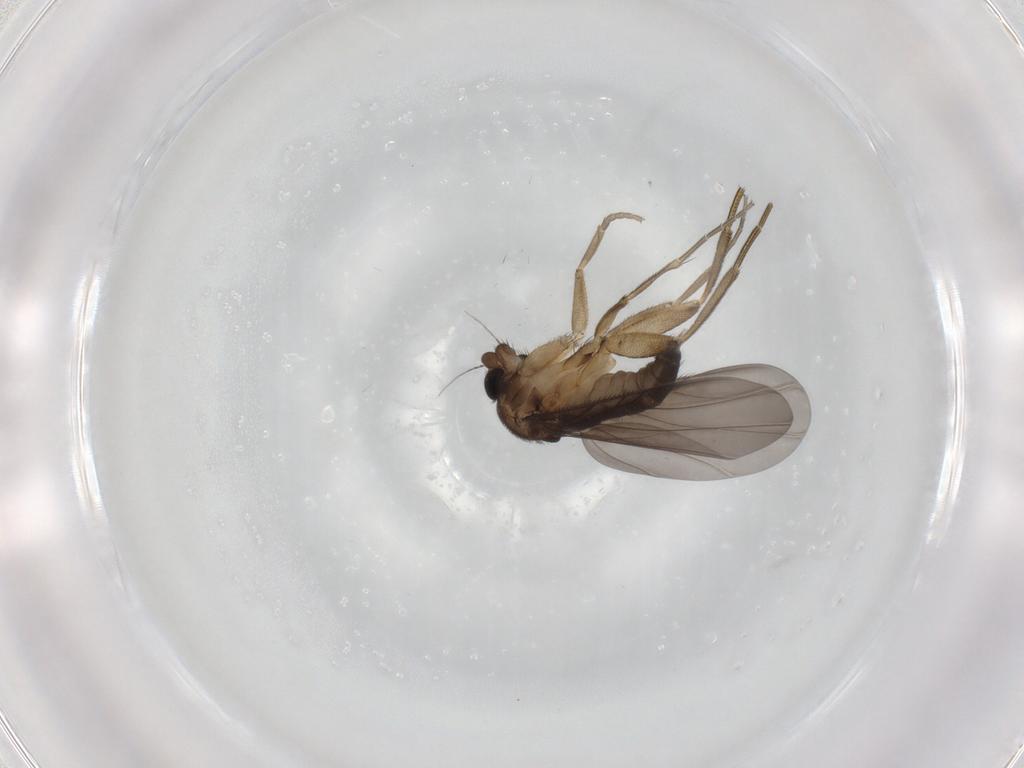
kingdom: Animalia
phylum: Arthropoda
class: Insecta
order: Diptera
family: Phoridae
